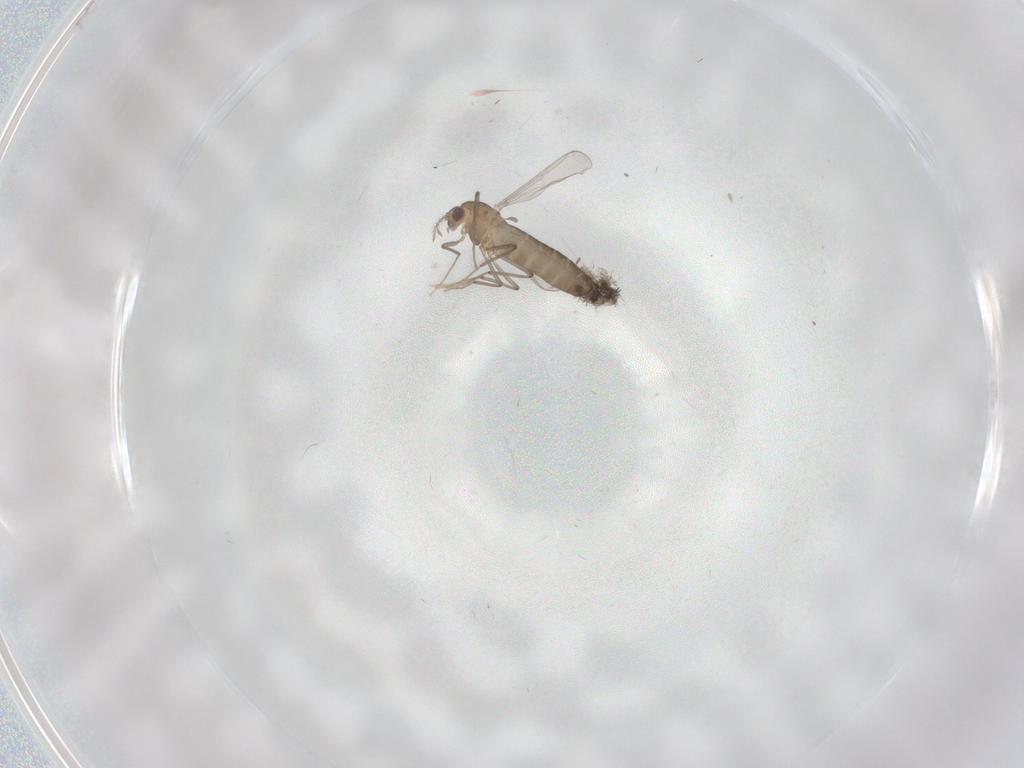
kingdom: Animalia
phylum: Arthropoda
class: Insecta
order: Diptera
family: Chironomidae
